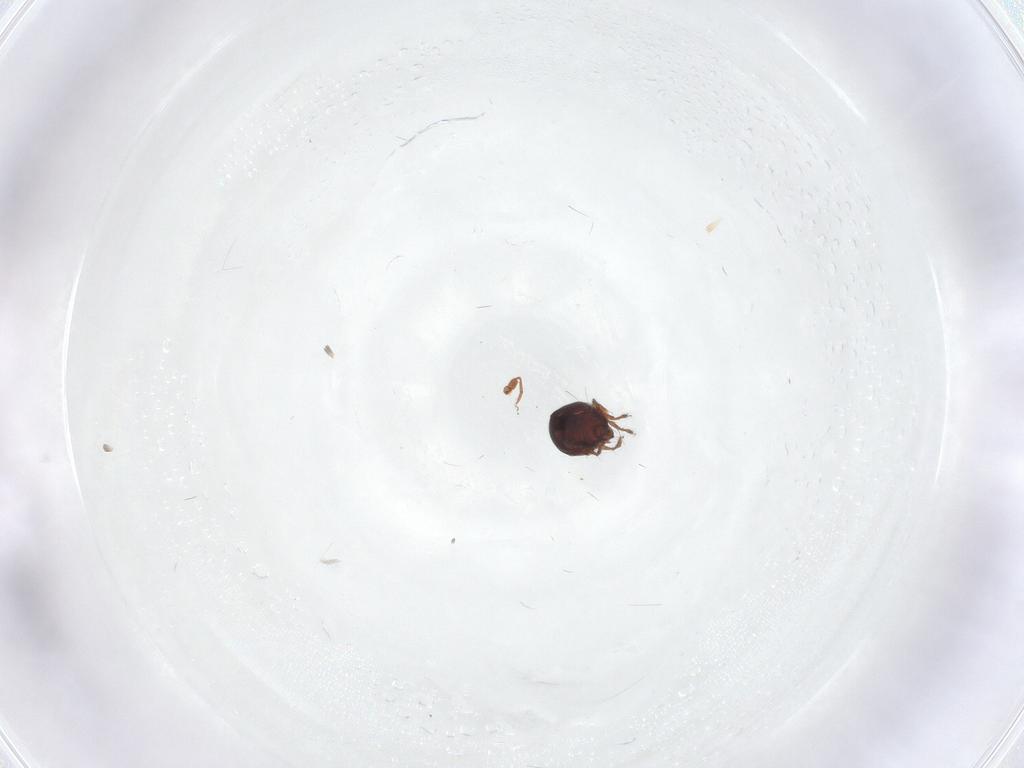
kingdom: Animalia
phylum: Arthropoda
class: Arachnida
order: Sarcoptiformes
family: Ceratozetidae
